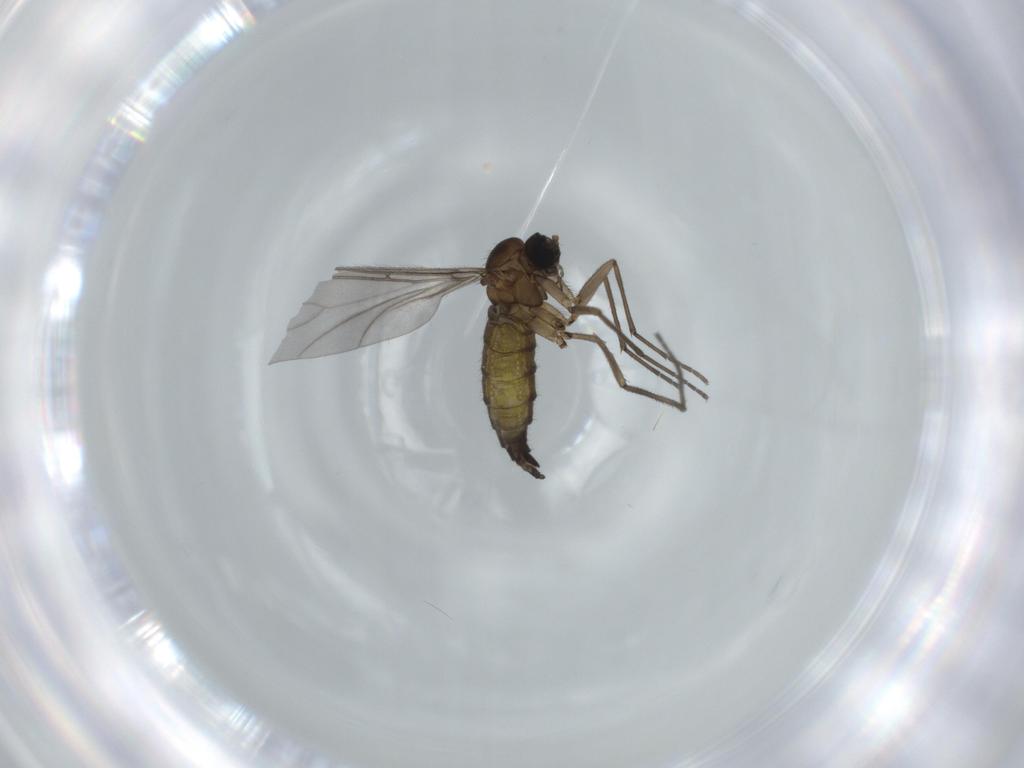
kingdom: Animalia
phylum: Arthropoda
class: Insecta
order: Diptera
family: Sciaridae
